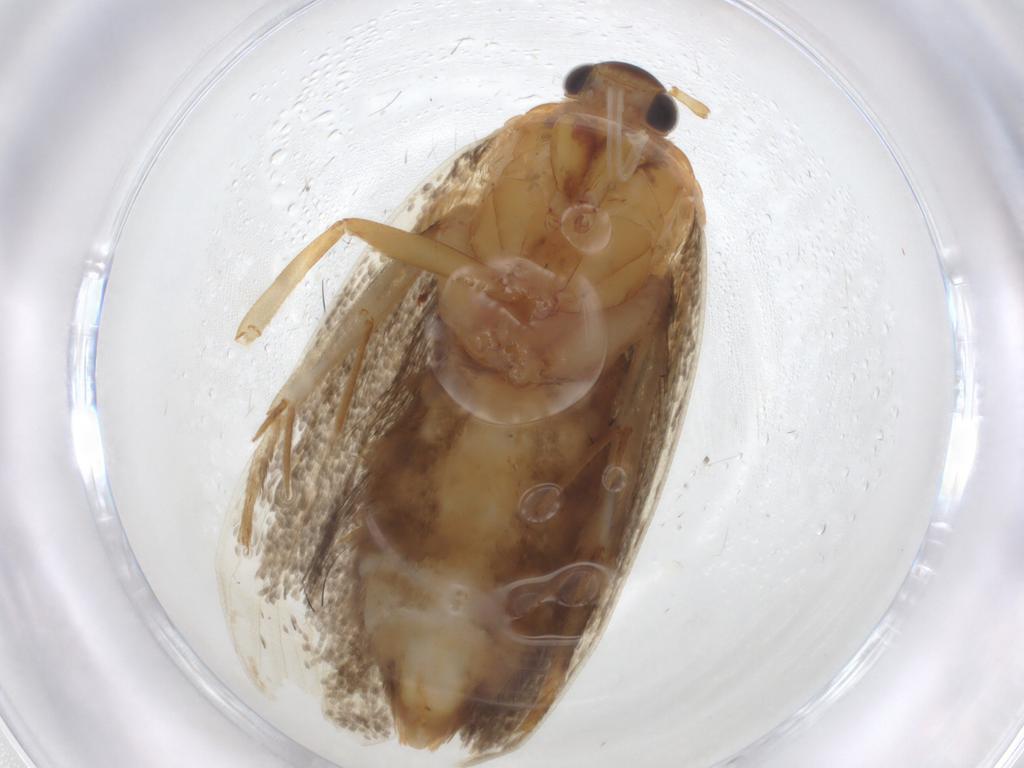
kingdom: Animalia
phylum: Arthropoda
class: Insecta
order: Lepidoptera
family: Oecophoridae
